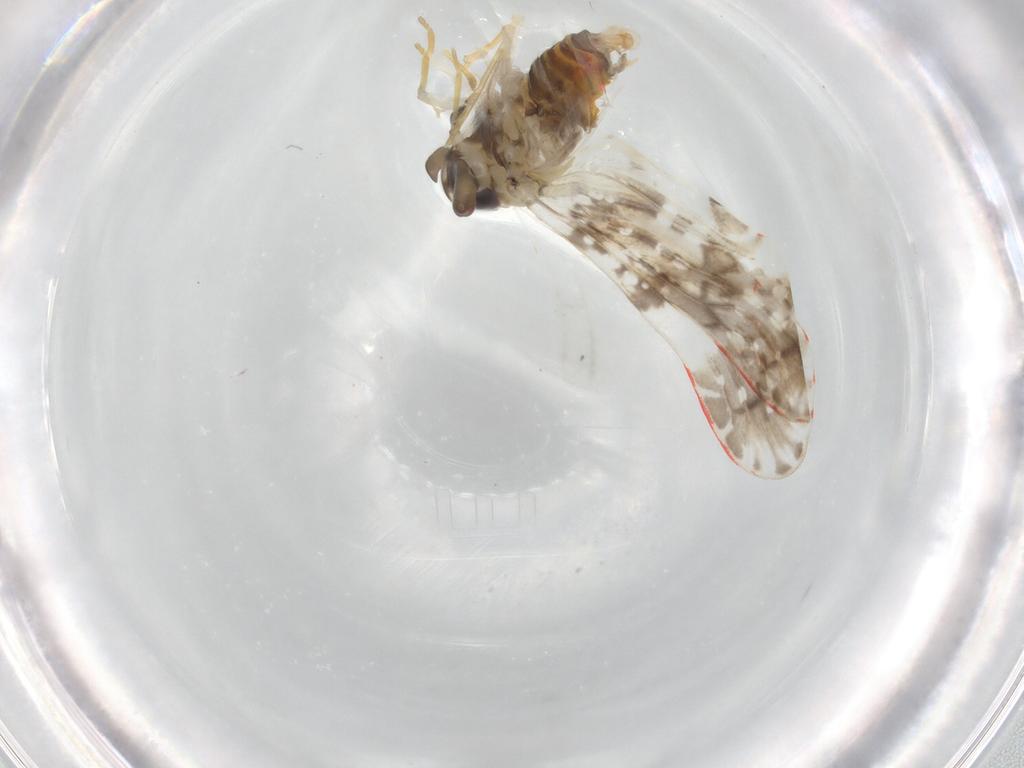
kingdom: Animalia
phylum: Arthropoda
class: Insecta
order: Hemiptera
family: Derbidae
